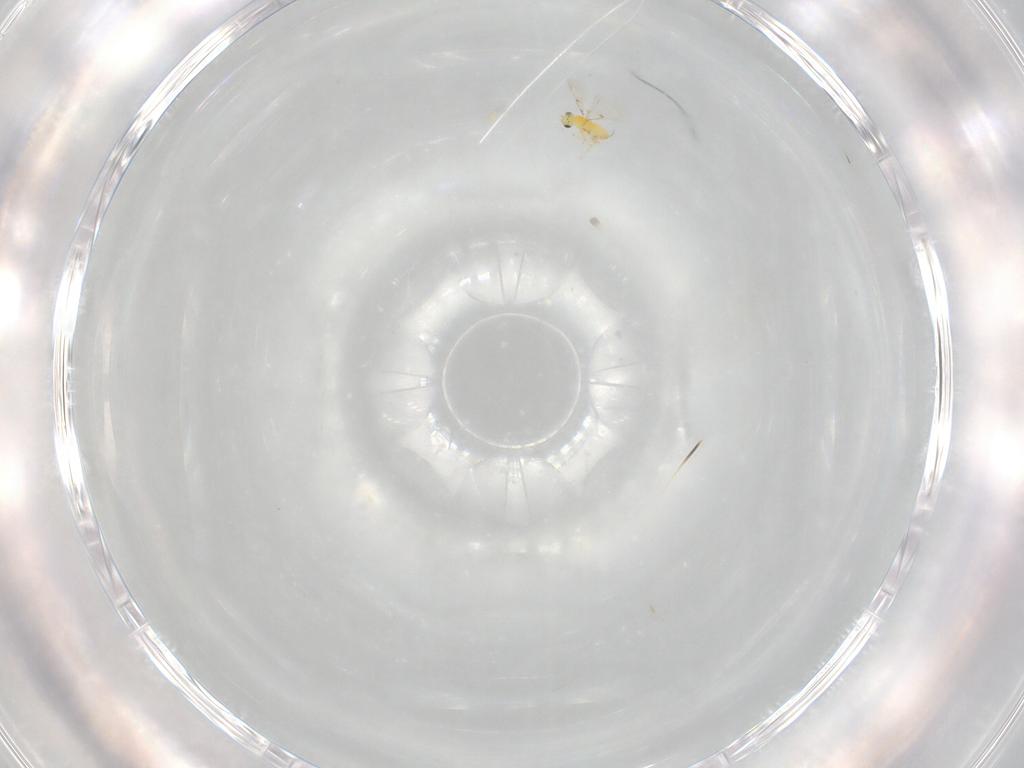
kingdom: Animalia
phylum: Arthropoda
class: Insecta
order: Hymenoptera
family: Trichogrammatidae
